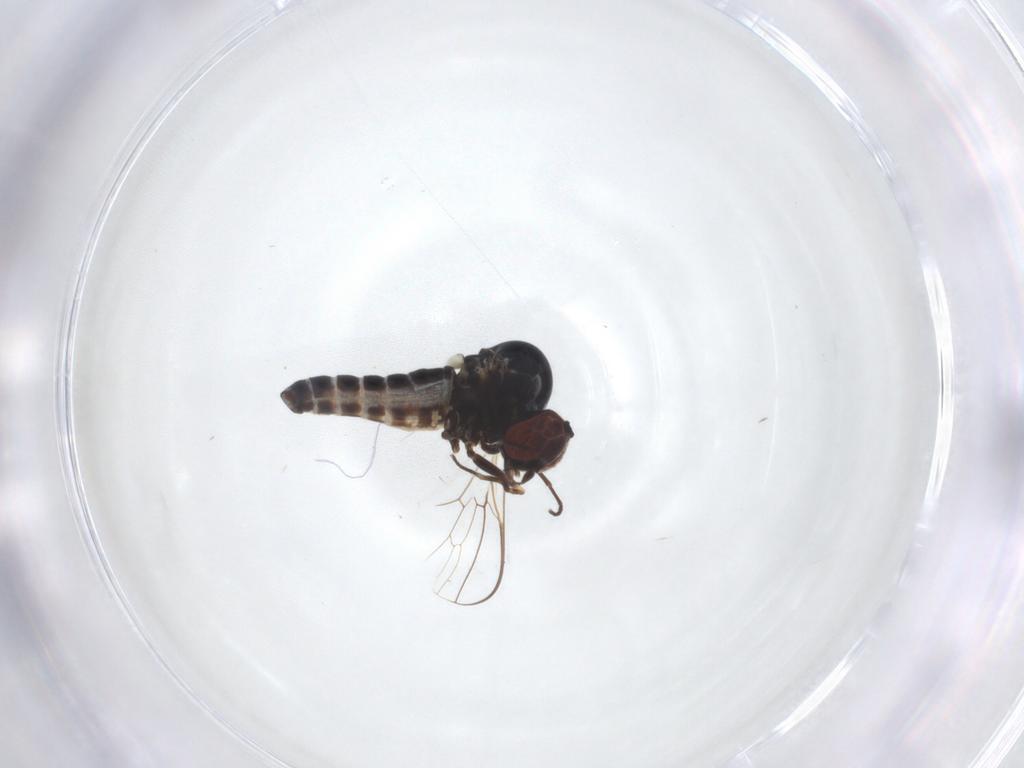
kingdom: Animalia
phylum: Arthropoda
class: Insecta
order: Diptera
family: Bombyliidae
